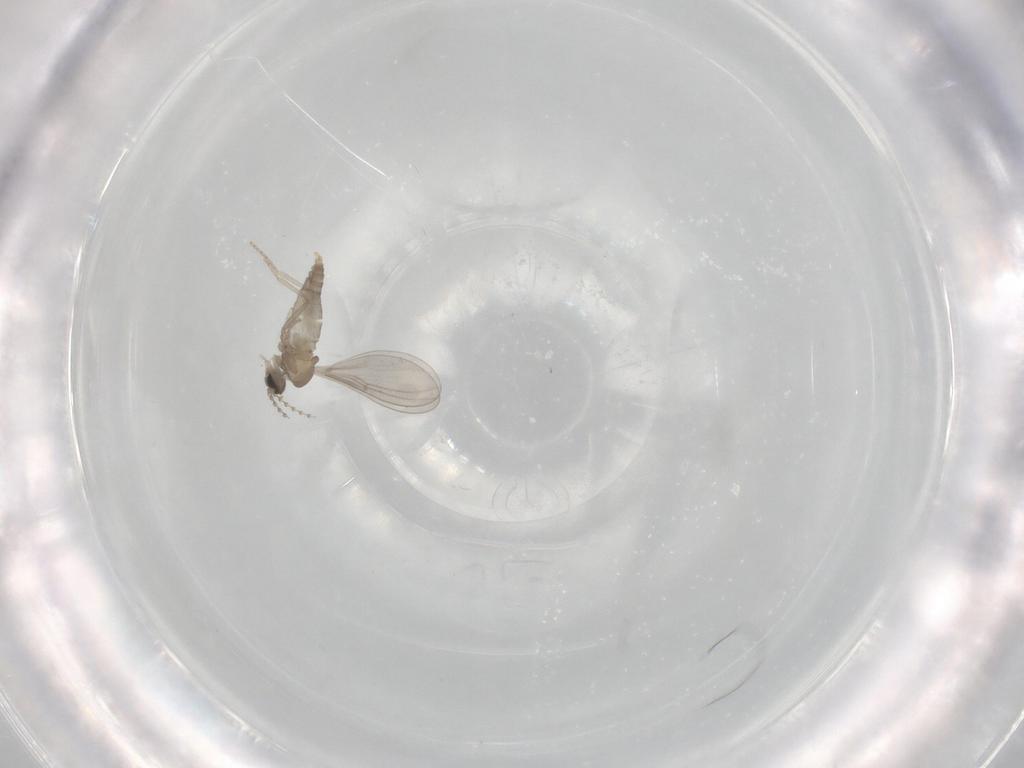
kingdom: Animalia
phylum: Arthropoda
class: Insecta
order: Diptera
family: Cecidomyiidae
